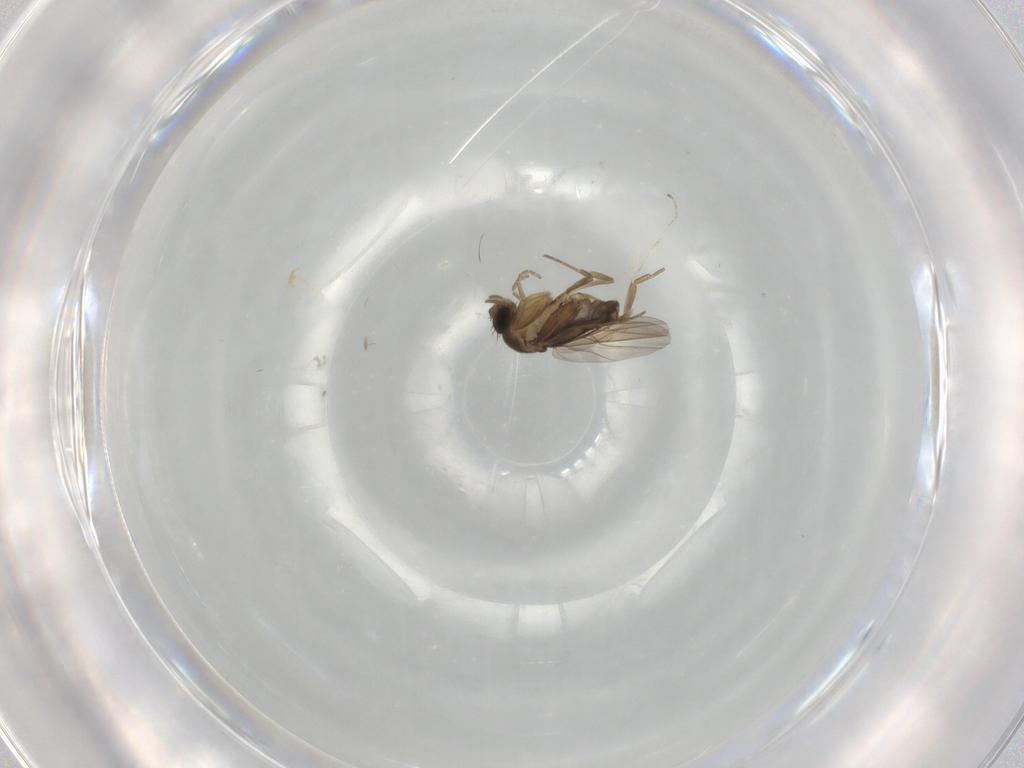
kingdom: Animalia
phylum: Arthropoda
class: Insecta
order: Diptera
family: Phoridae
